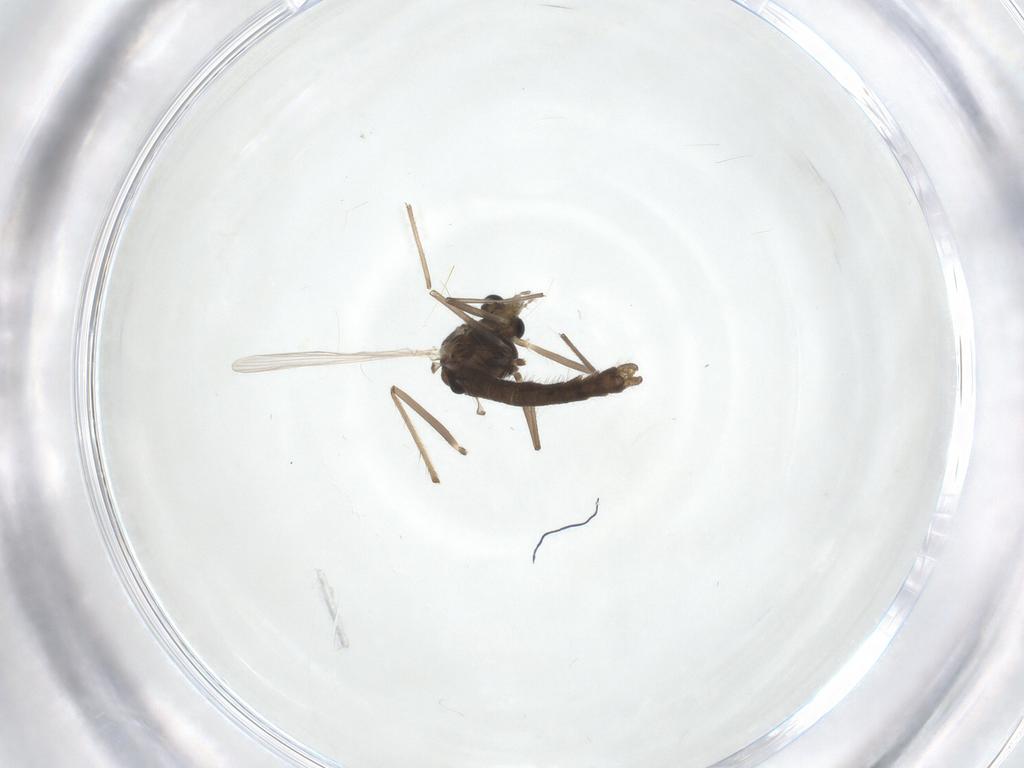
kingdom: Animalia
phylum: Arthropoda
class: Insecta
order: Diptera
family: Chironomidae
